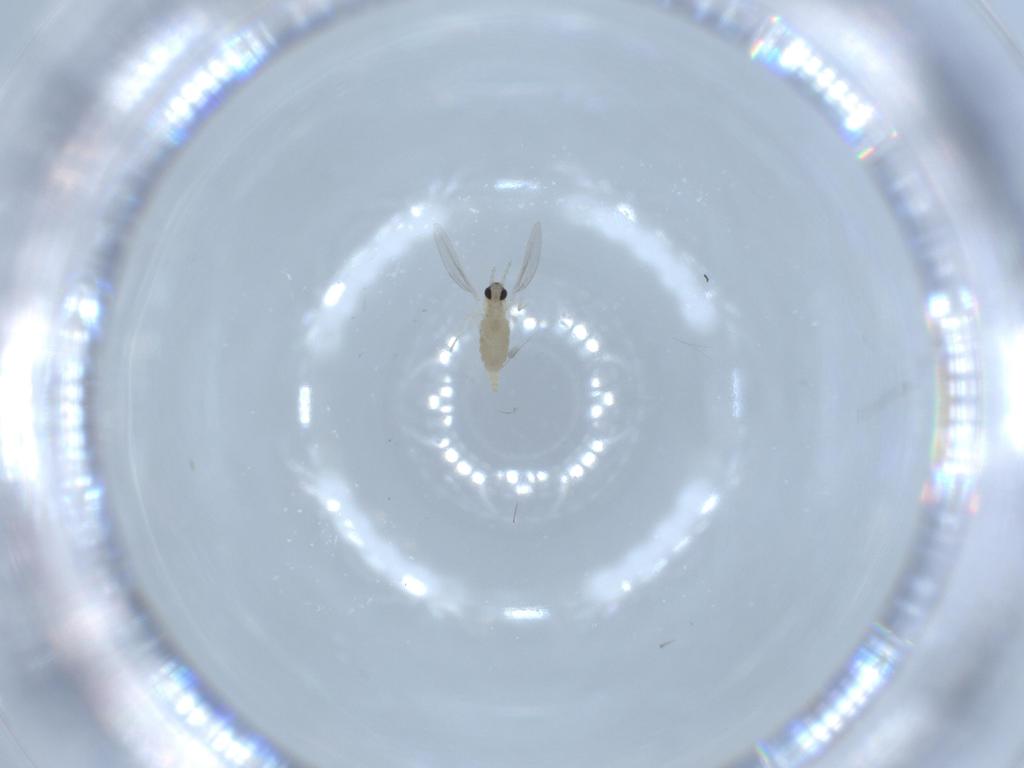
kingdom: Animalia
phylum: Arthropoda
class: Insecta
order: Diptera
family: Cecidomyiidae
